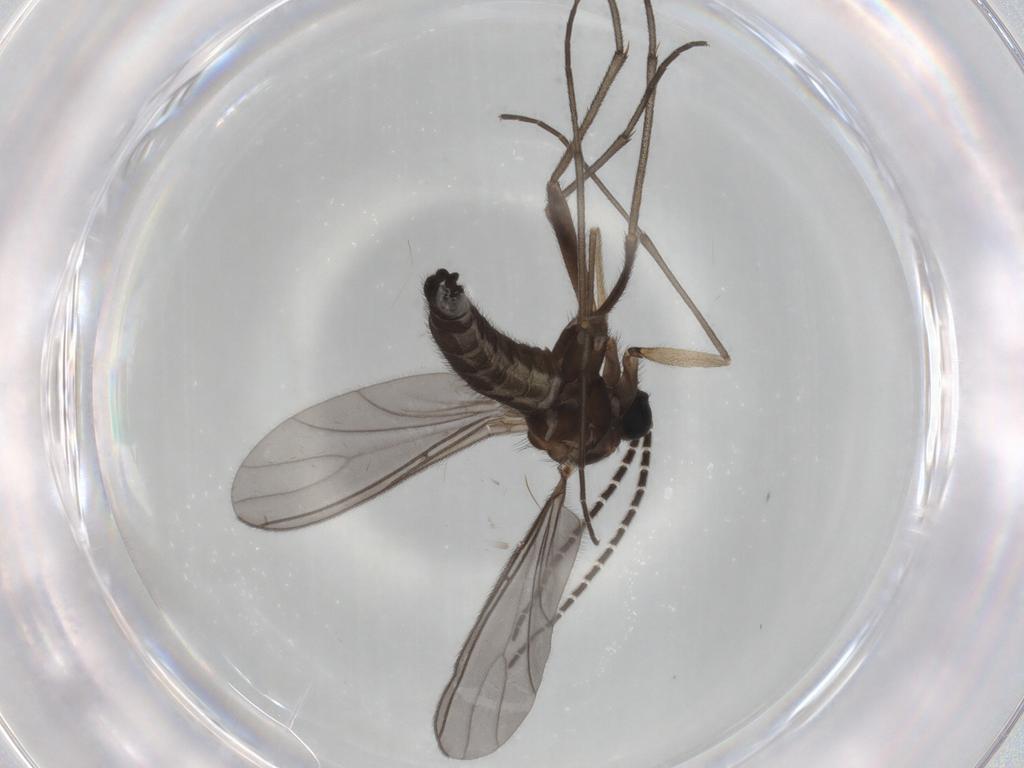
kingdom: Animalia
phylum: Arthropoda
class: Insecta
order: Diptera
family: Sciaridae
